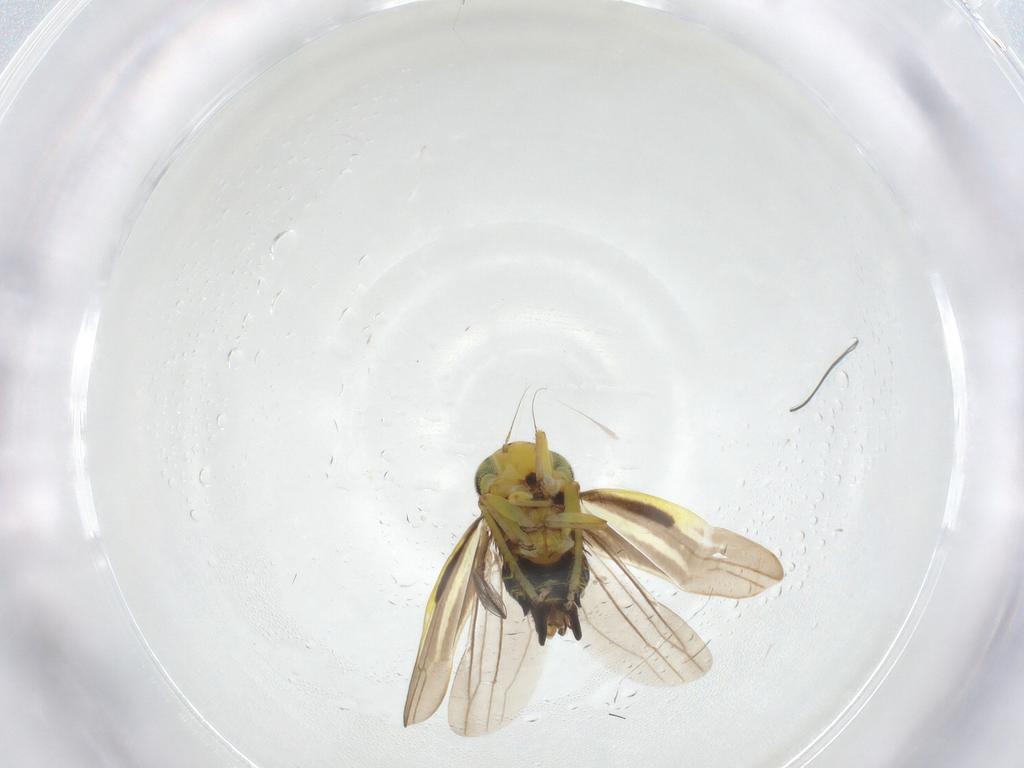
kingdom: Animalia
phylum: Arthropoda
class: Insecta
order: Hemiptera
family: Cicadellidae
